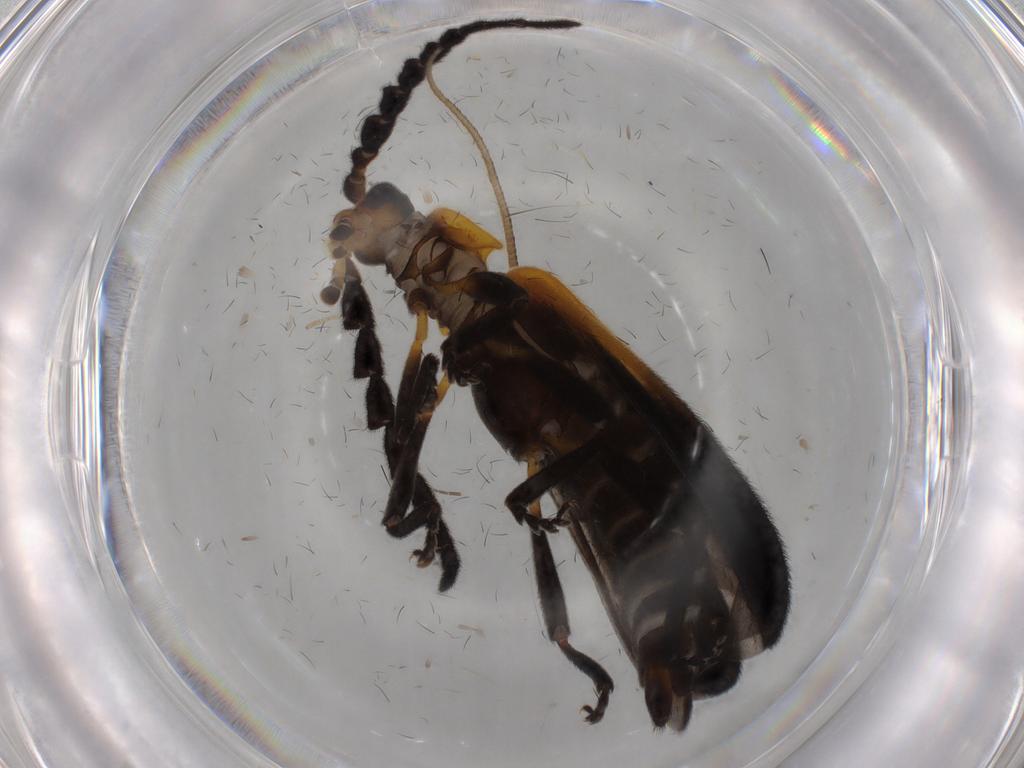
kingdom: Animalia
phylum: Arthropoda
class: Insecta
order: Coleoptera
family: Lycidae
